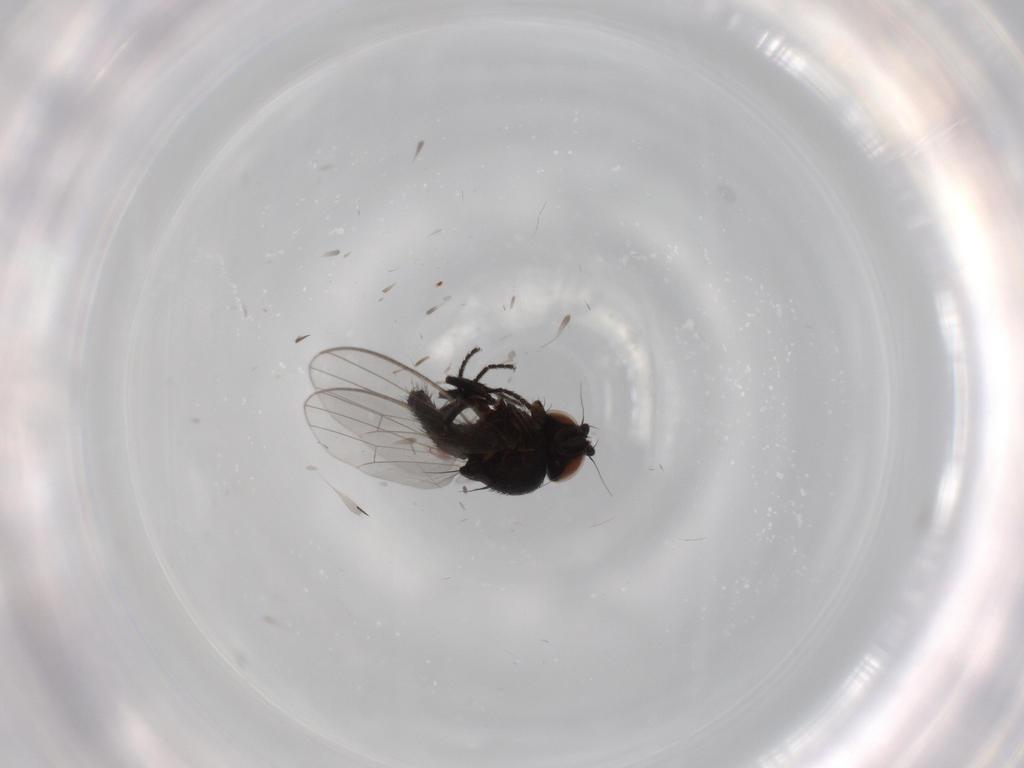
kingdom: Animalia
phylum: Arthropoda
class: Insecta
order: Diptera
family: Milichiidae
